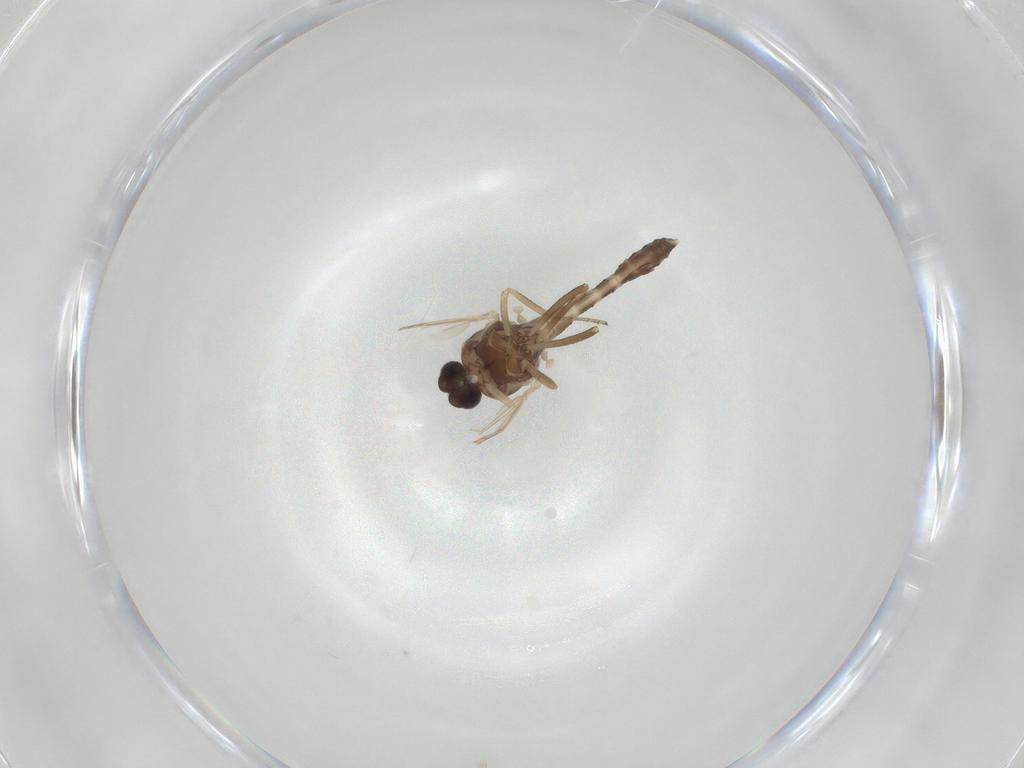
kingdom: Animalia
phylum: Arthropoda
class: Insecta
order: Diptera
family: Ceratopogonidae
